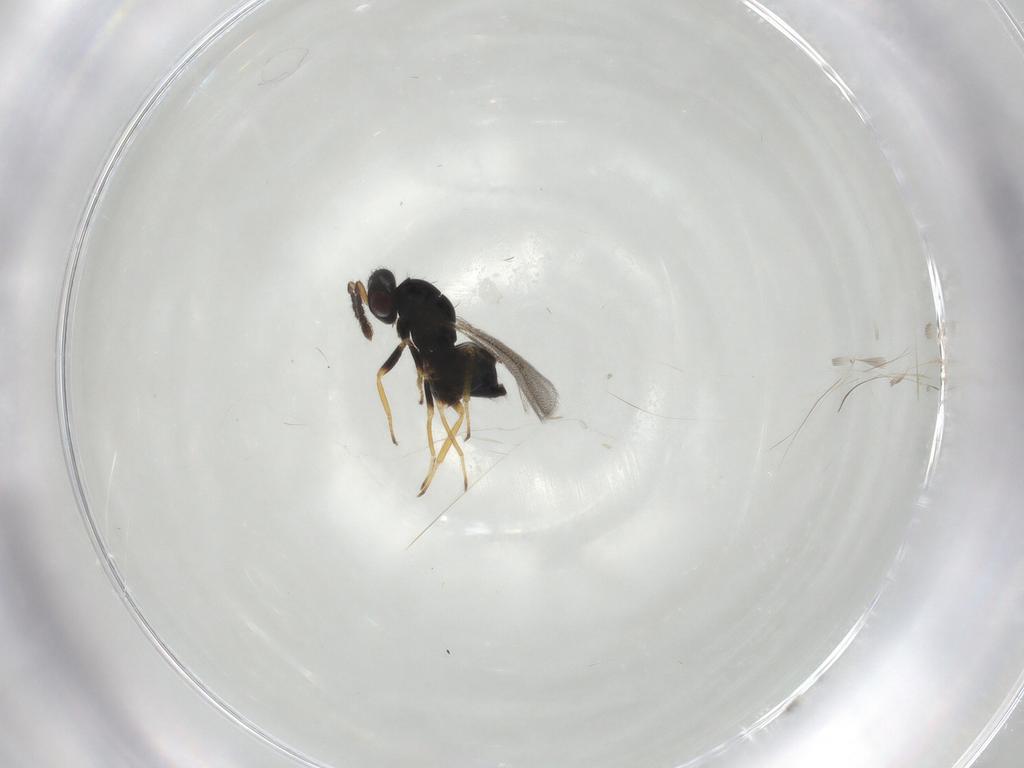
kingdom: Animalia
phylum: Arthropoda
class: Insecta
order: Hymenoptera
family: Eulophidae
